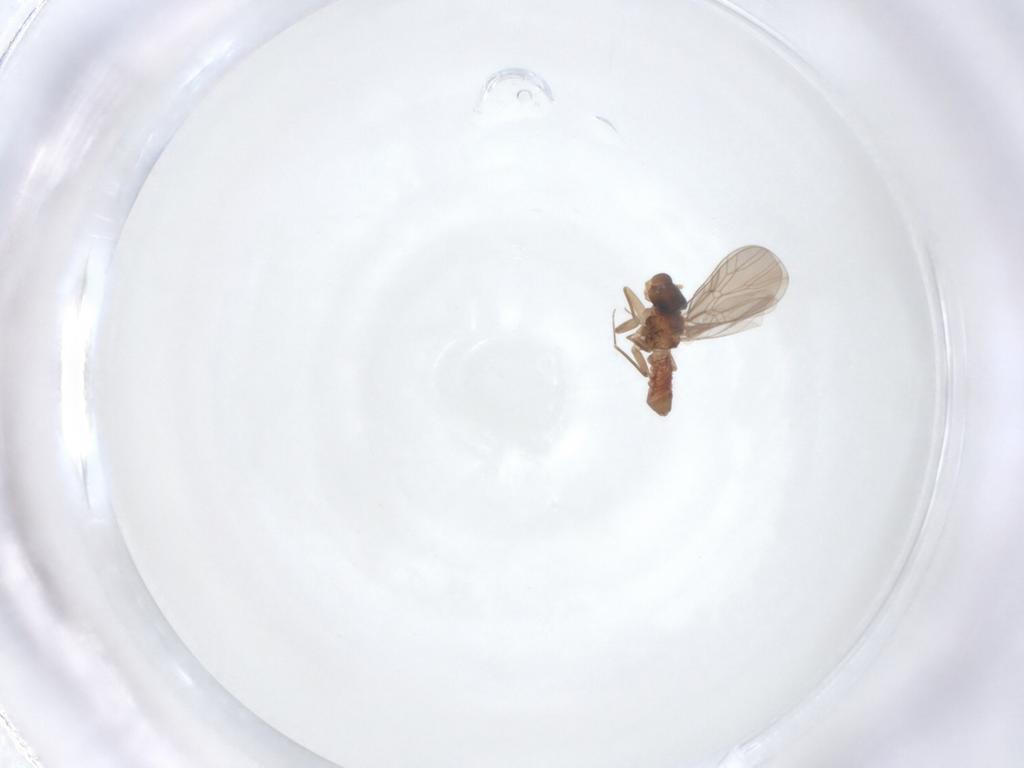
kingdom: Animalia
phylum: Arthropoda
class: Insecta
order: Psocodea
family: Lepidopsocidae
